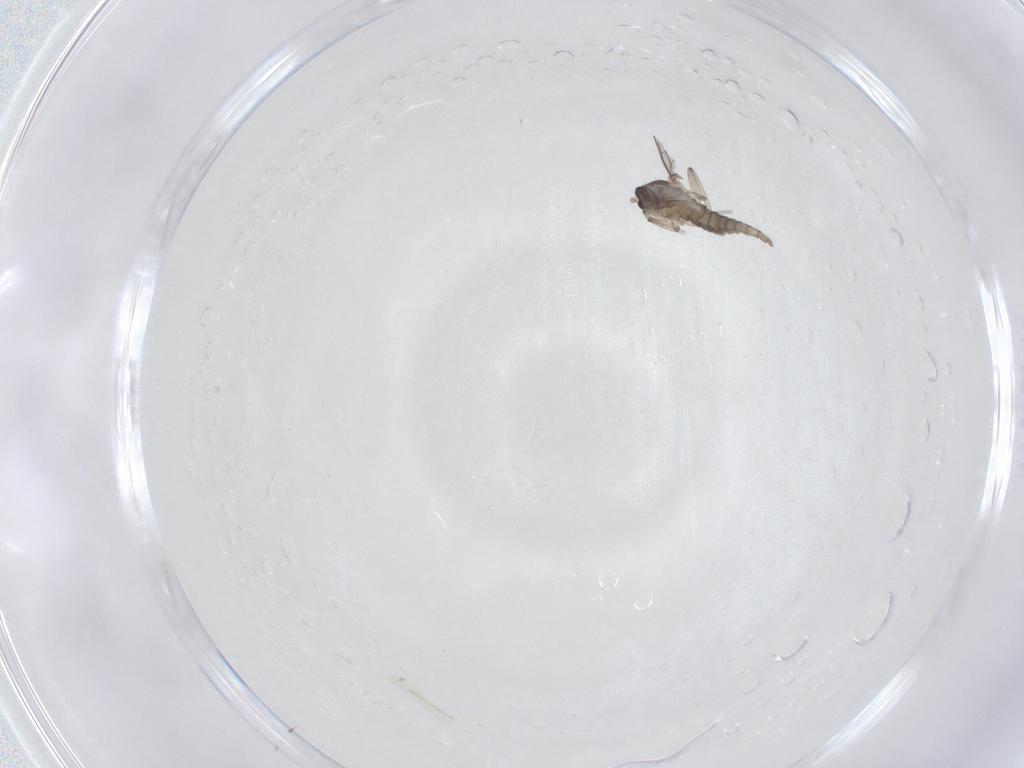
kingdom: Animalia
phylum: Arthropoda
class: Insecta
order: Diptera
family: Cecidomyiidae
